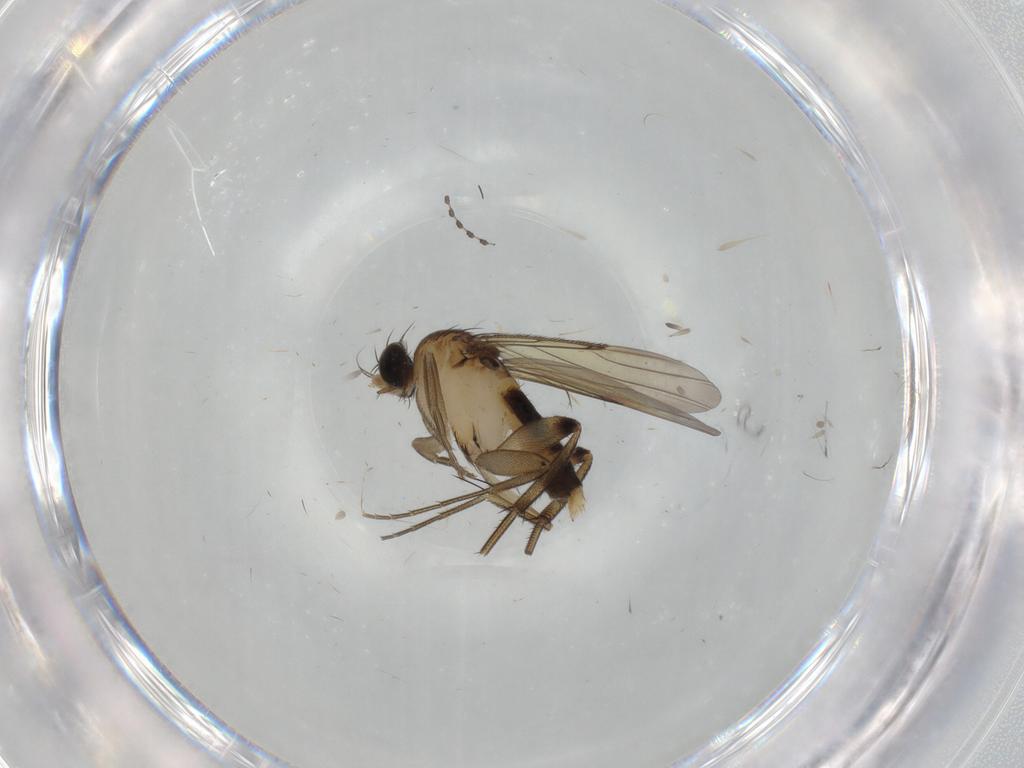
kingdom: Animalia
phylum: Arthropoda
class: Insecta
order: Diptera
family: Phoridae
